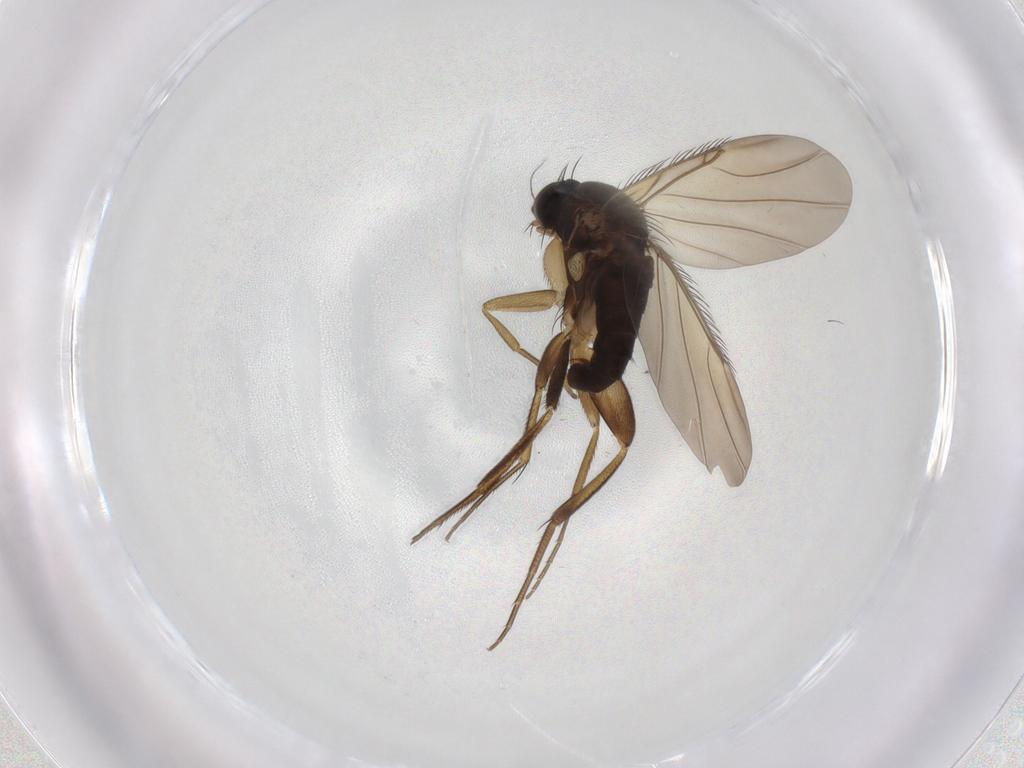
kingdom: Animalia
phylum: Arthropoda
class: Insecta
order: Diptera
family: Phoridae
